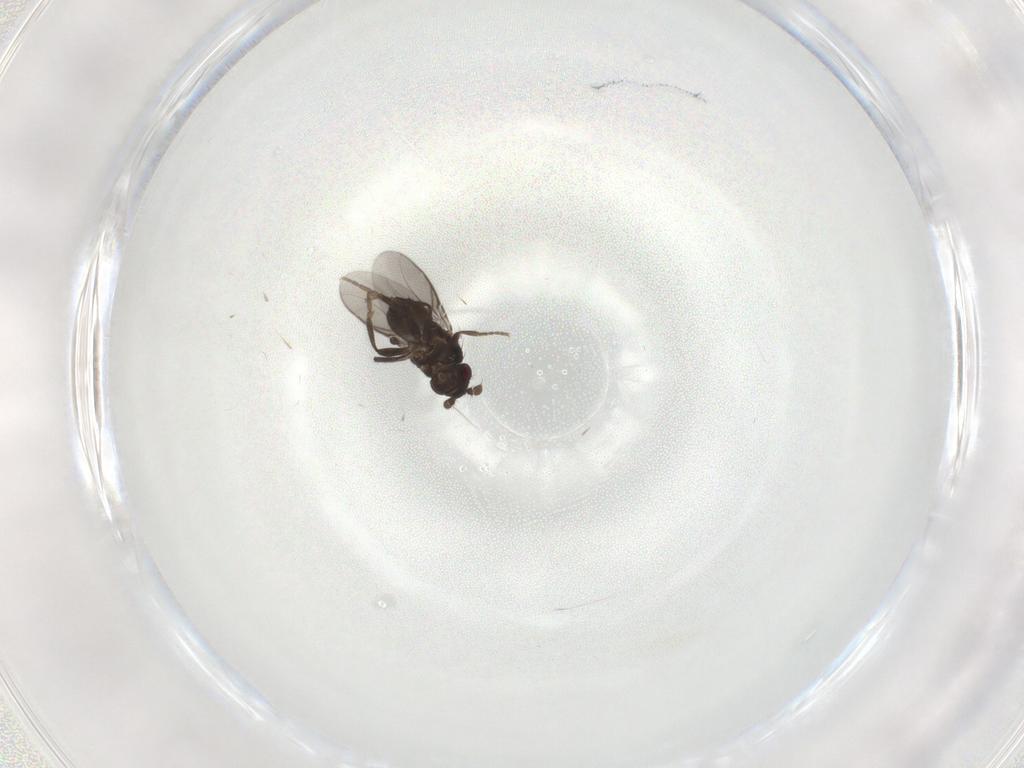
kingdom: Animalia
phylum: Arthropoda
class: Insecta
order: Diptera
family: Sphaeroceridae
